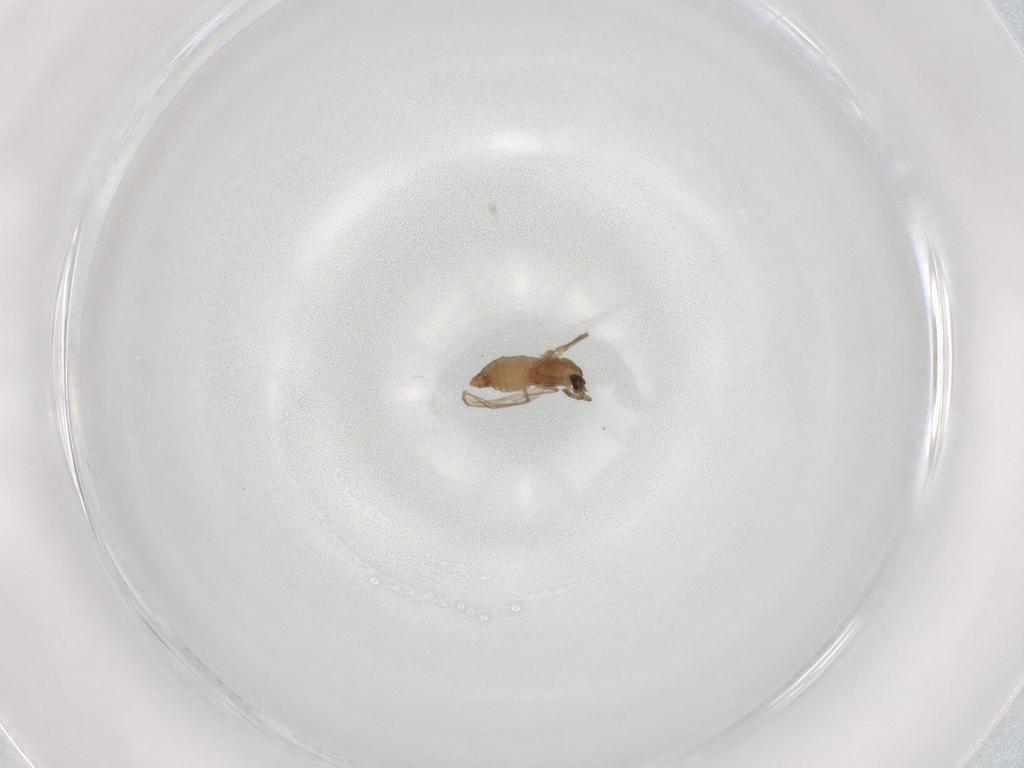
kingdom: Animalia
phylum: Arthropoda
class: Insecta
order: Diptera
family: Chironomidae
